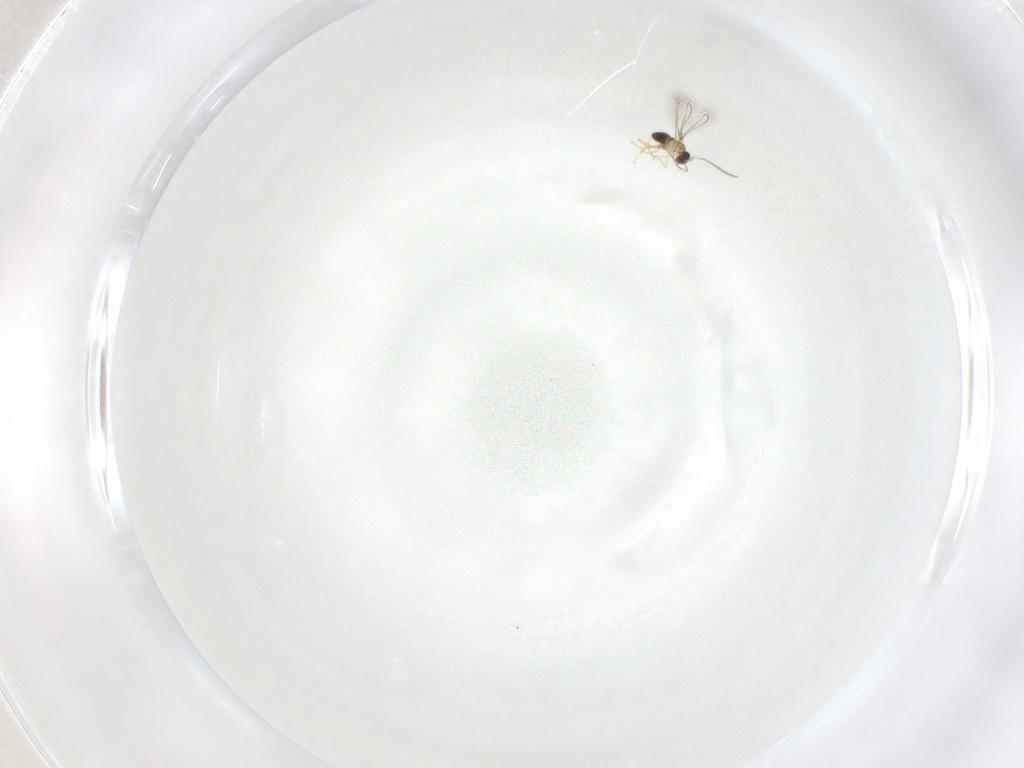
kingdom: Animalia
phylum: Arthropoda
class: Insecta
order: Hymenoptera
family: Mymaridae
